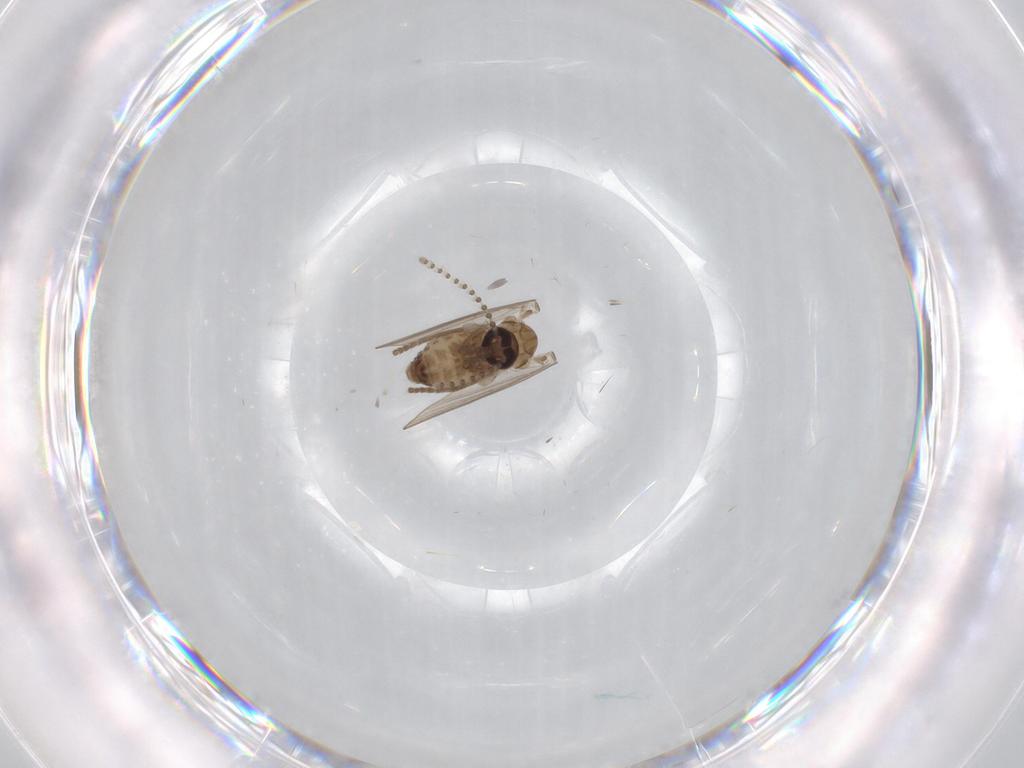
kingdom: Animalia
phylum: Arthropoda
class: Insecta
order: Diptera
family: Psychodidae
